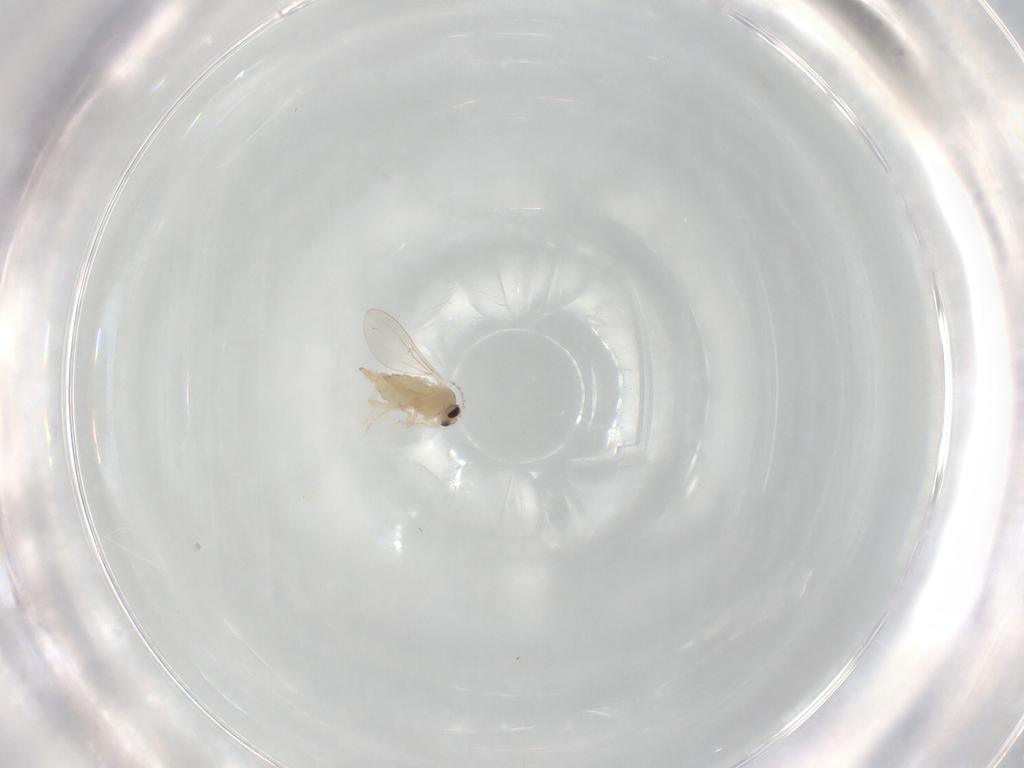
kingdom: Animalia
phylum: Arthropoda
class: Insecta
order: Diptera
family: Cecidomyiidae
